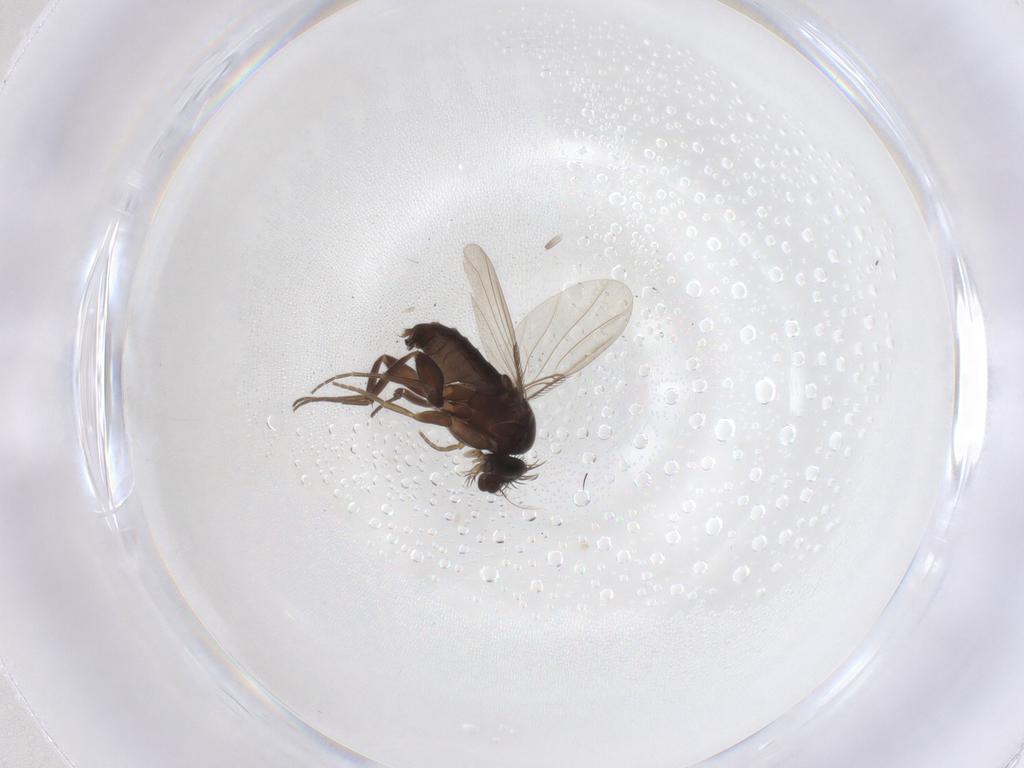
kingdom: Animalia
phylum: Arthropoda
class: Insecta
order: Diptera
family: Phoridae
